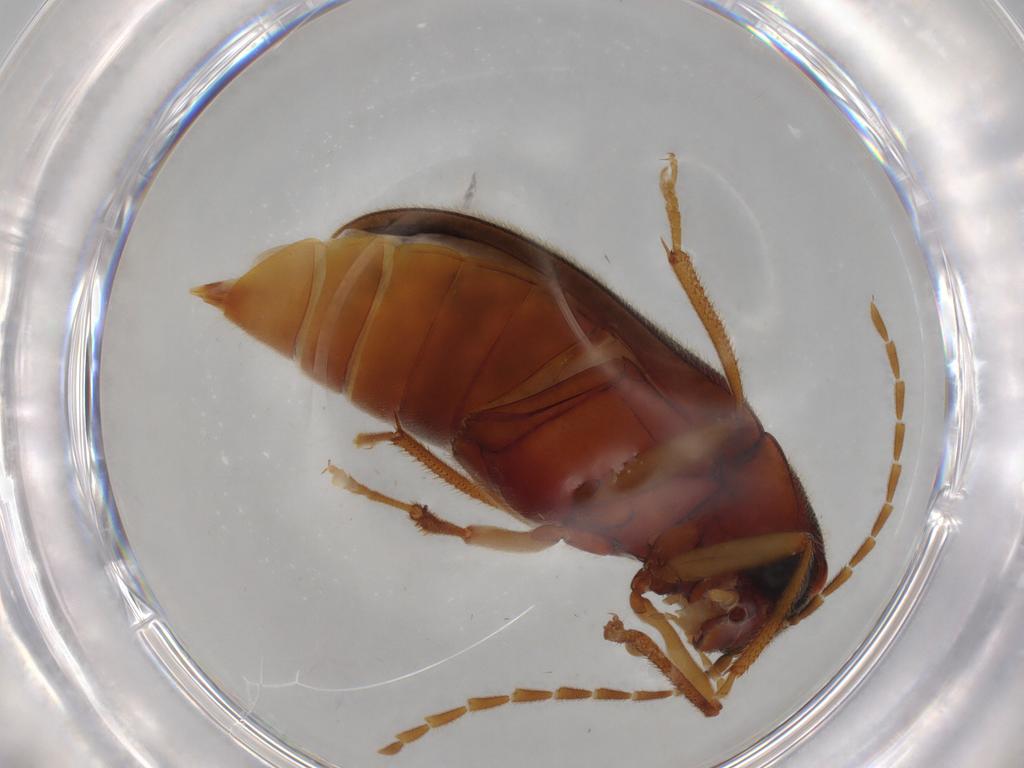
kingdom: Animalia
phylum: Arthropoda
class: Insecta
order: Coleoptera
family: Ptilodactylidae
